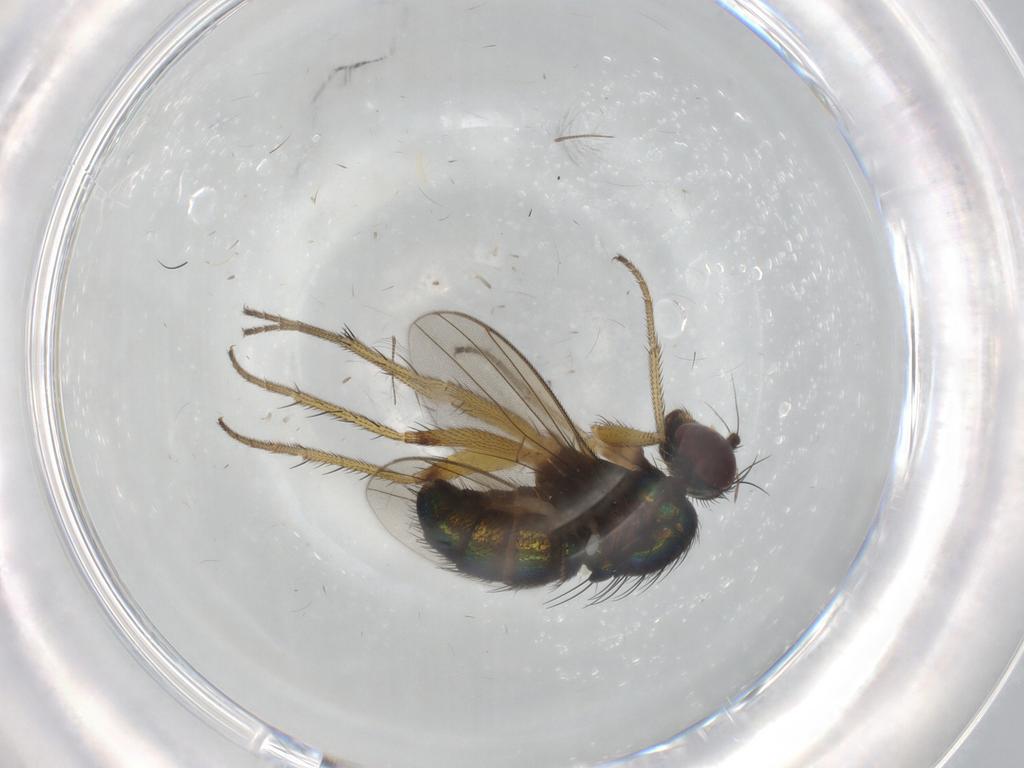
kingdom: Animalia
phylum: Arthropoda
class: Insecta
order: Diptera
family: Dolichopodidae
